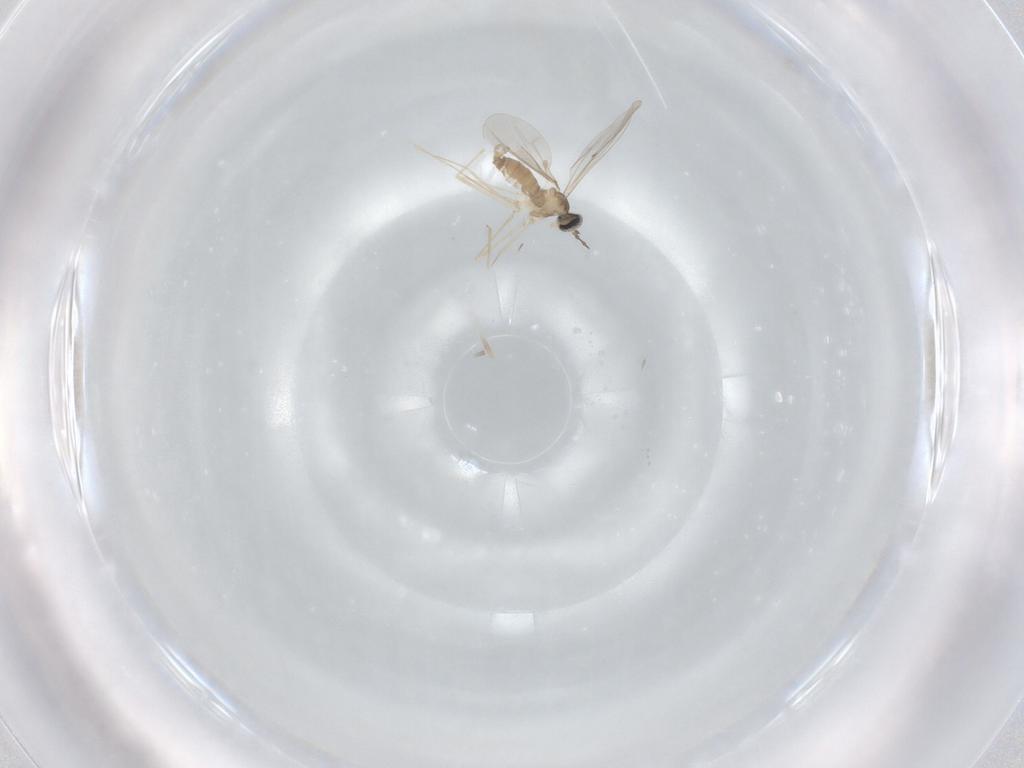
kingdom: Animalia
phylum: Arthropoda
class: Insecta
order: Diptera
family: Cecidomyiidae
